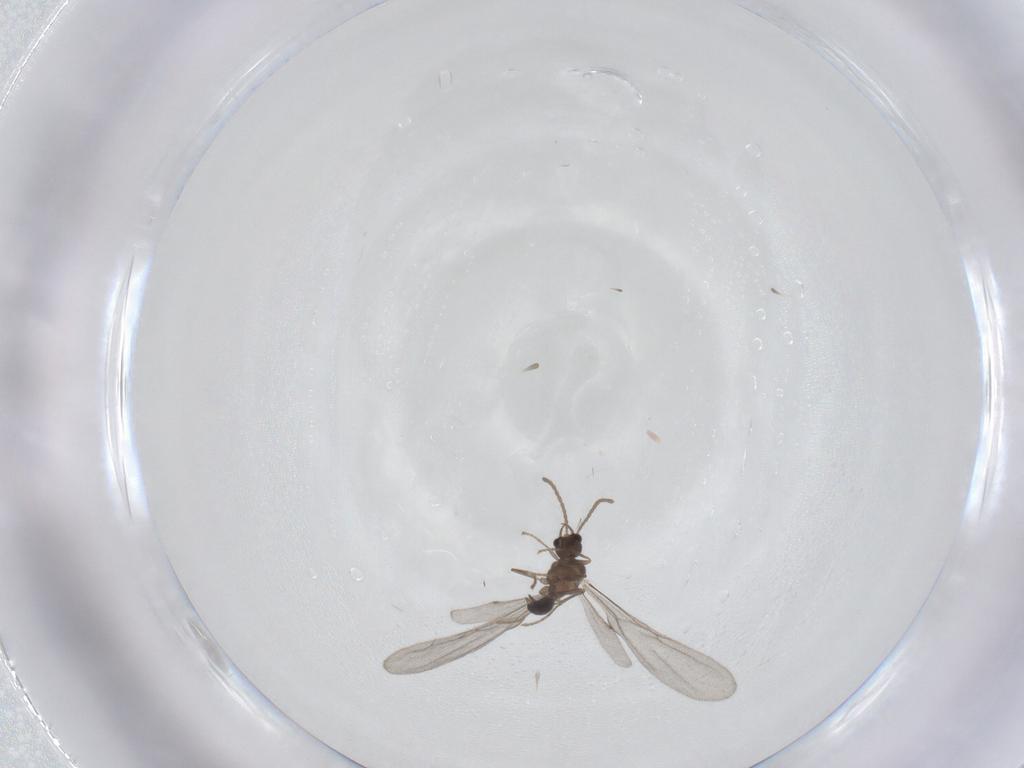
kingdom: Animalia
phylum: Arthropoda
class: Insecta
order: Hymenoptera
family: Formicidae
